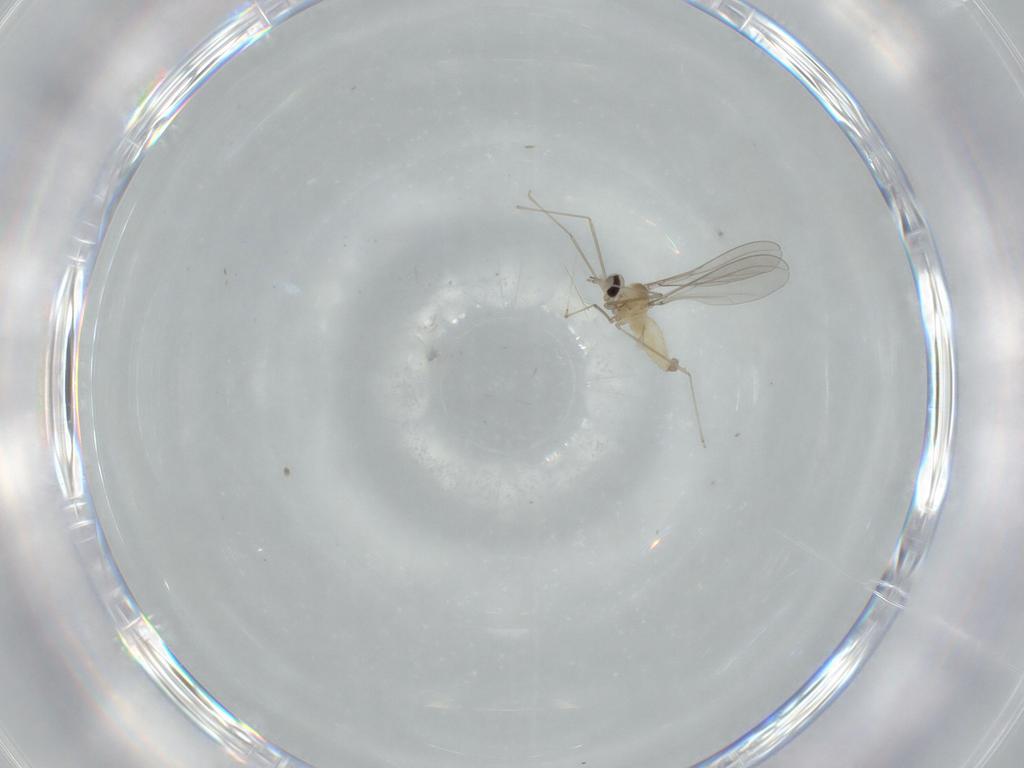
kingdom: Animalia
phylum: Arthropoda
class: Insecta
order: Diptera
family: Cecidomyiidae
